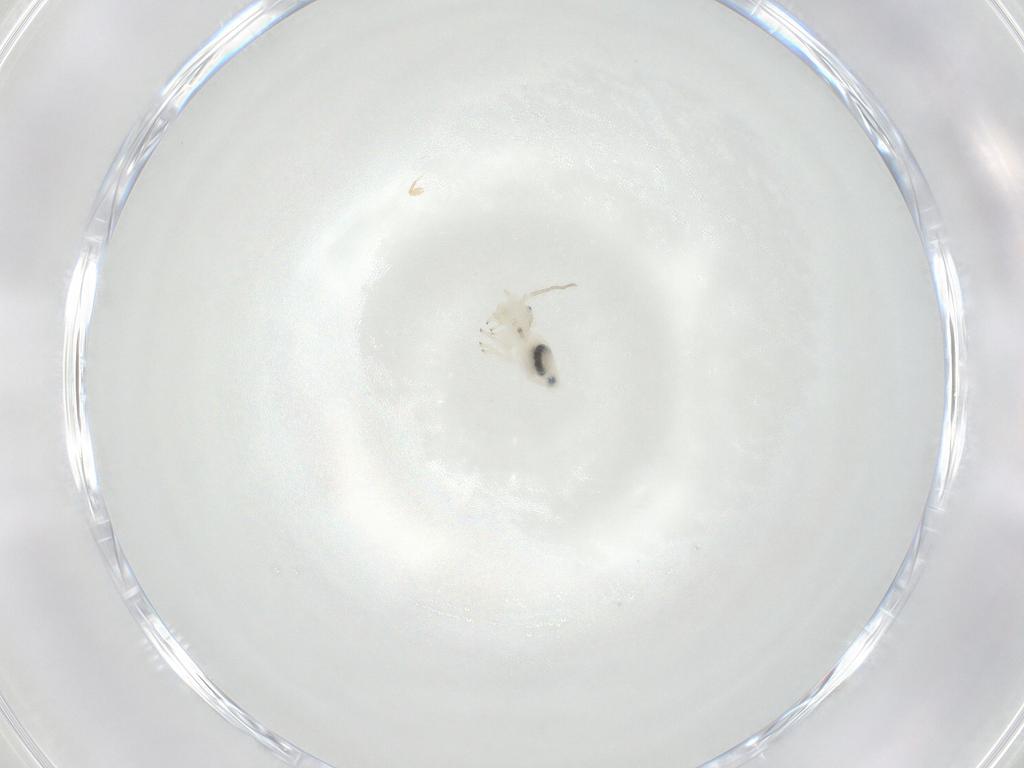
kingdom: Animalia
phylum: Arthropoda
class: Insecta
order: Psocodea
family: Philotarsidae
